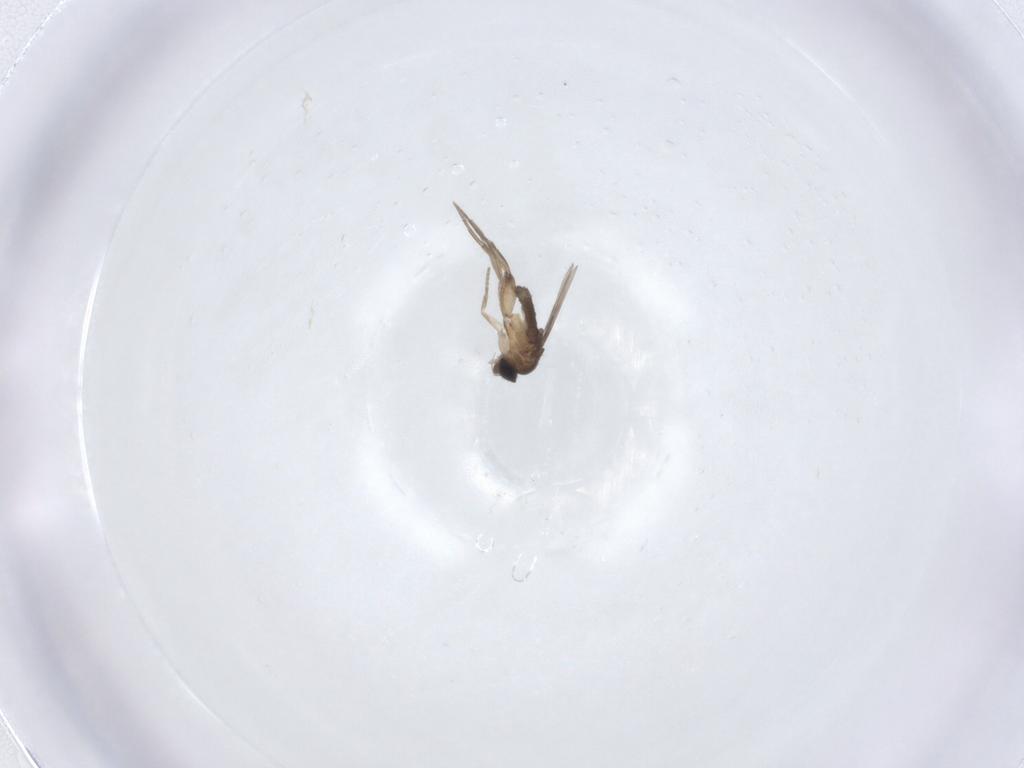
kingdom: Animalia
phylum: Arthropoda
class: Insecta
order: Diptera
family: Phoridae
